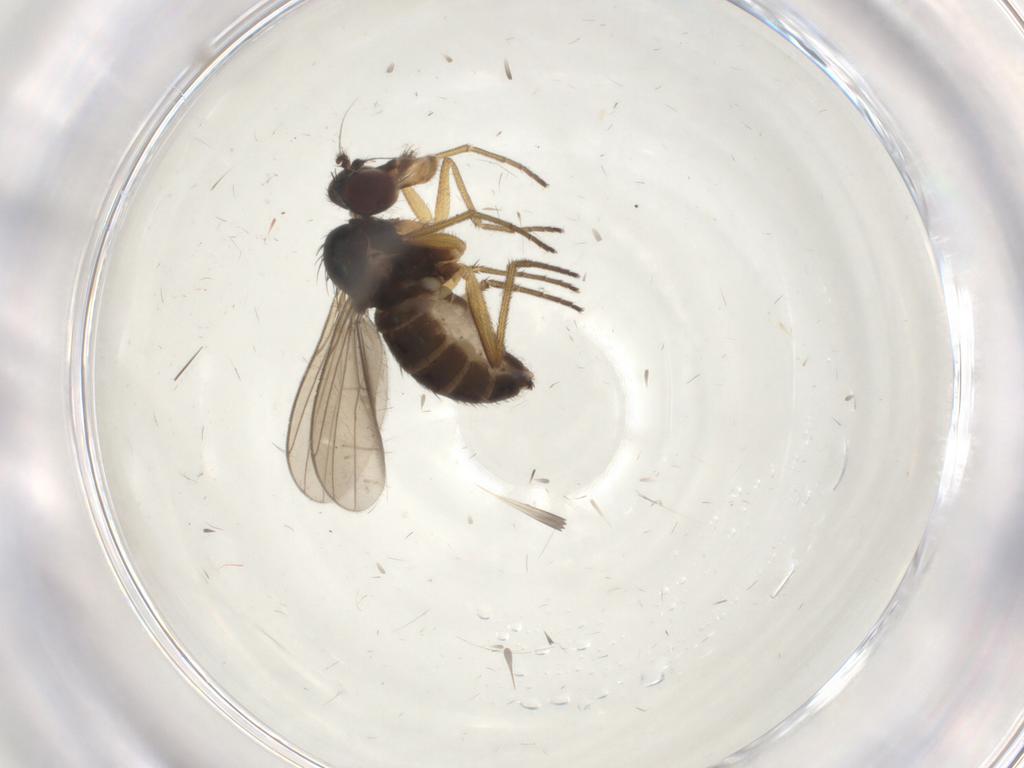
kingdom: Animalia
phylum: Arthropoda
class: Insecta
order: Diptera
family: Dolichopodidae
